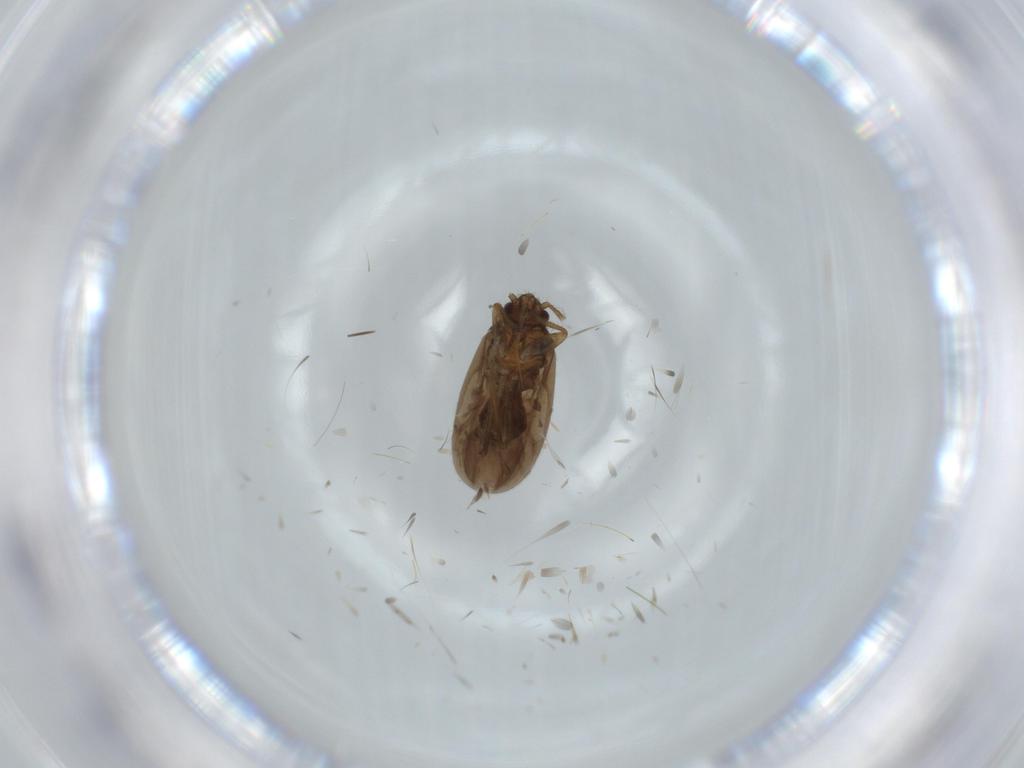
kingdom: Animalia
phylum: Arthropoda
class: Insecta
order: Hemiptera
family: Ceratocombidae
